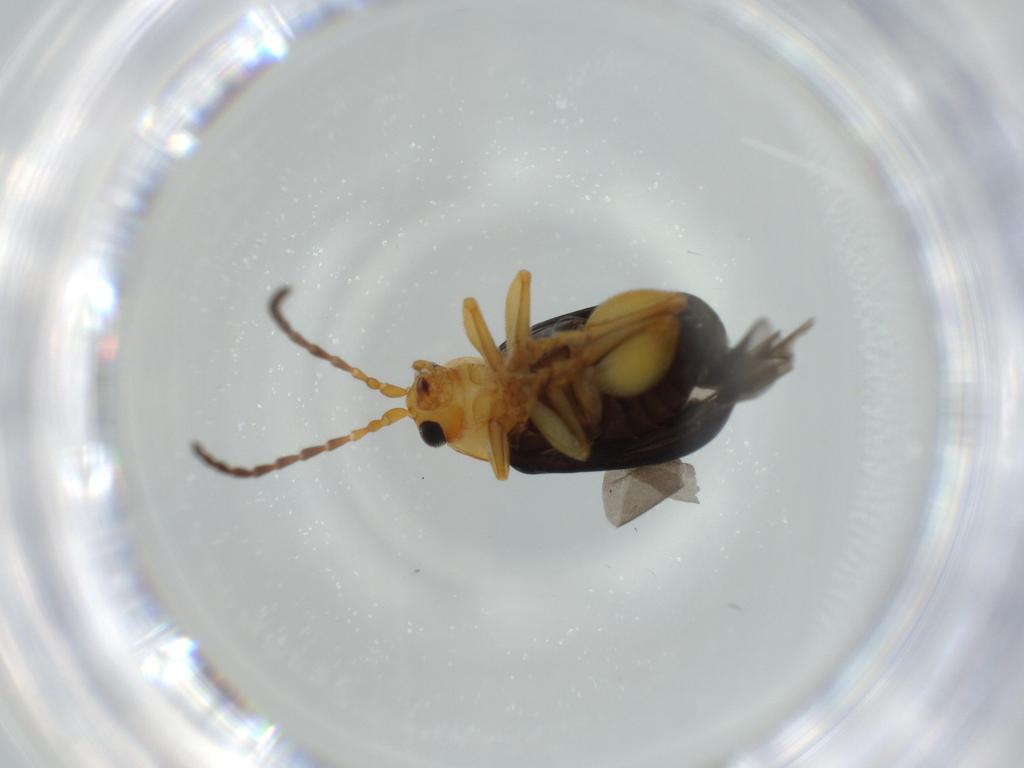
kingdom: Animalia
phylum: Arthropoda
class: Insecta
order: Coleoptera
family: Chrysomelidae
